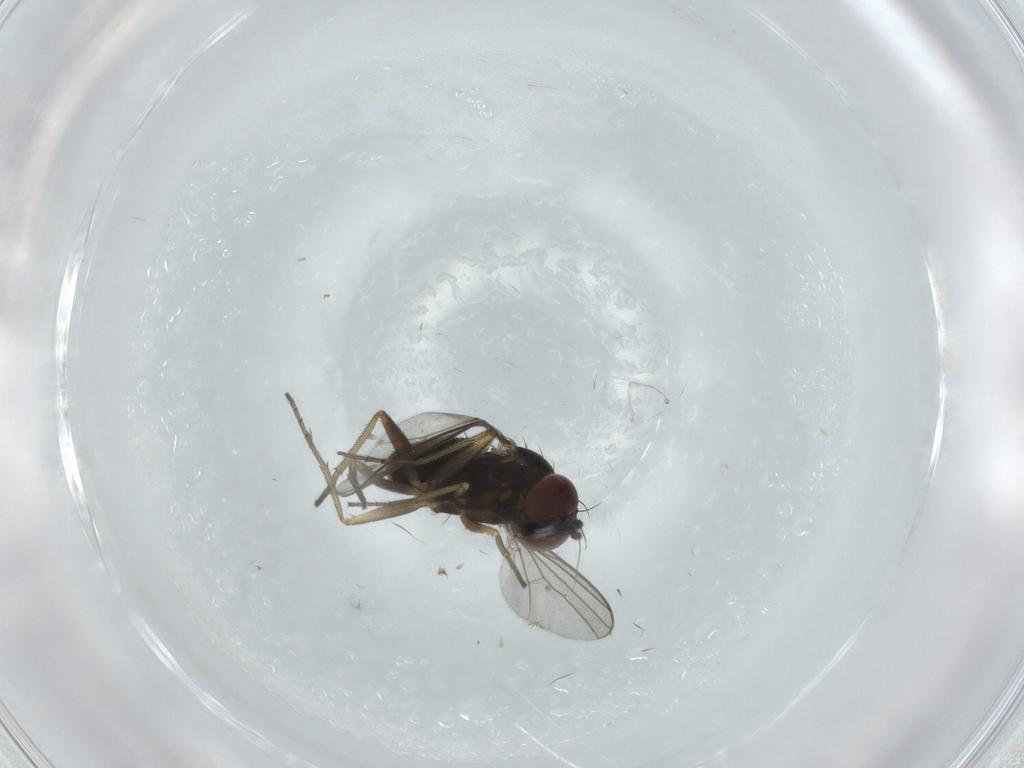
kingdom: Animalia
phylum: Arthropoda
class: Insecta
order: Diptera
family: Dolichopodidae
